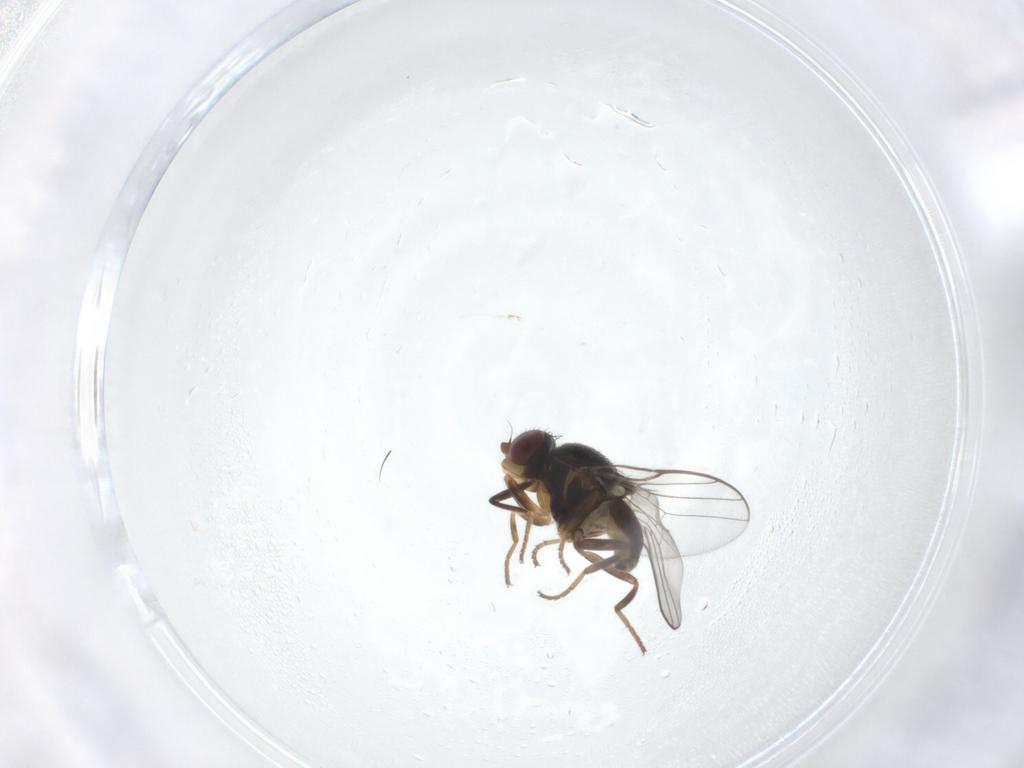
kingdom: Animalia
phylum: Arthropoda
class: Insecta
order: Diptera
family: Chloropidae
